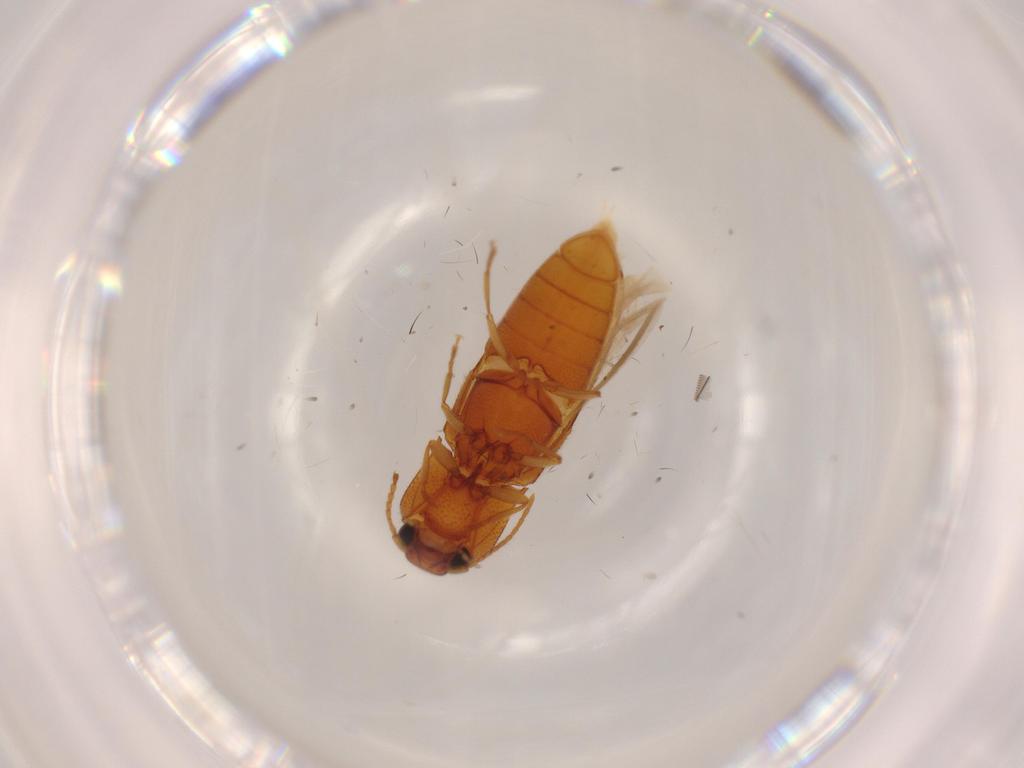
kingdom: Animalia
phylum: Arthropoda
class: Insecta
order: Coleoptera
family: Elateridae
